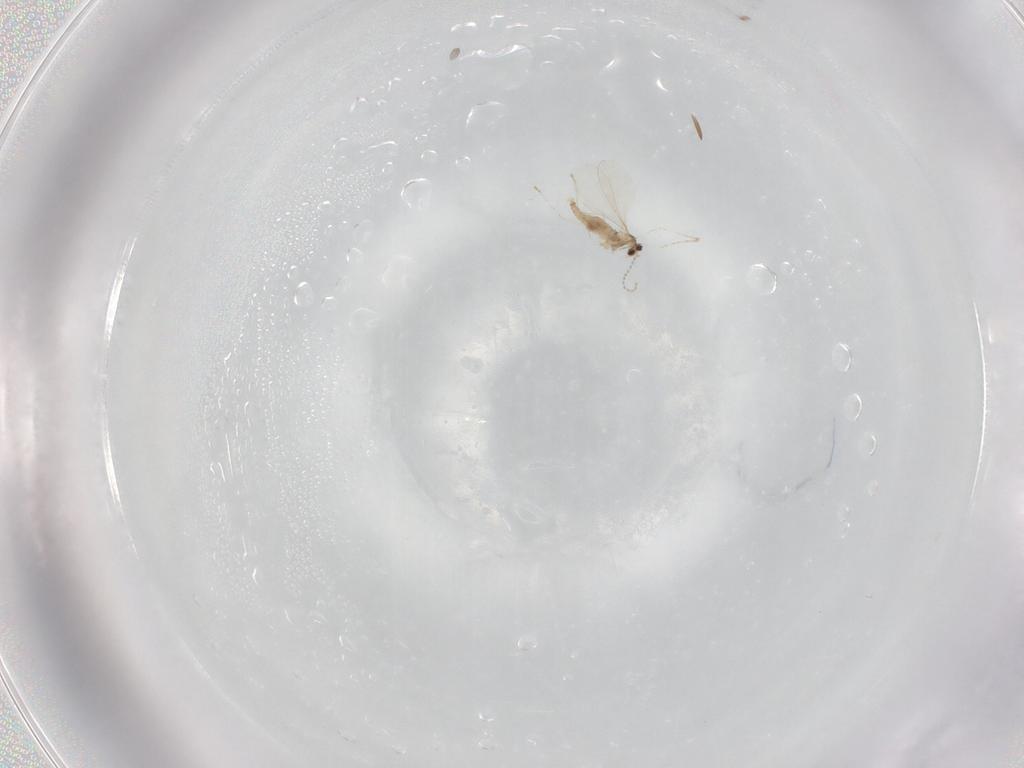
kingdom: Animalia
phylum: Arthropoda
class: Insecta
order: Diptera
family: Cecidomyiidae
